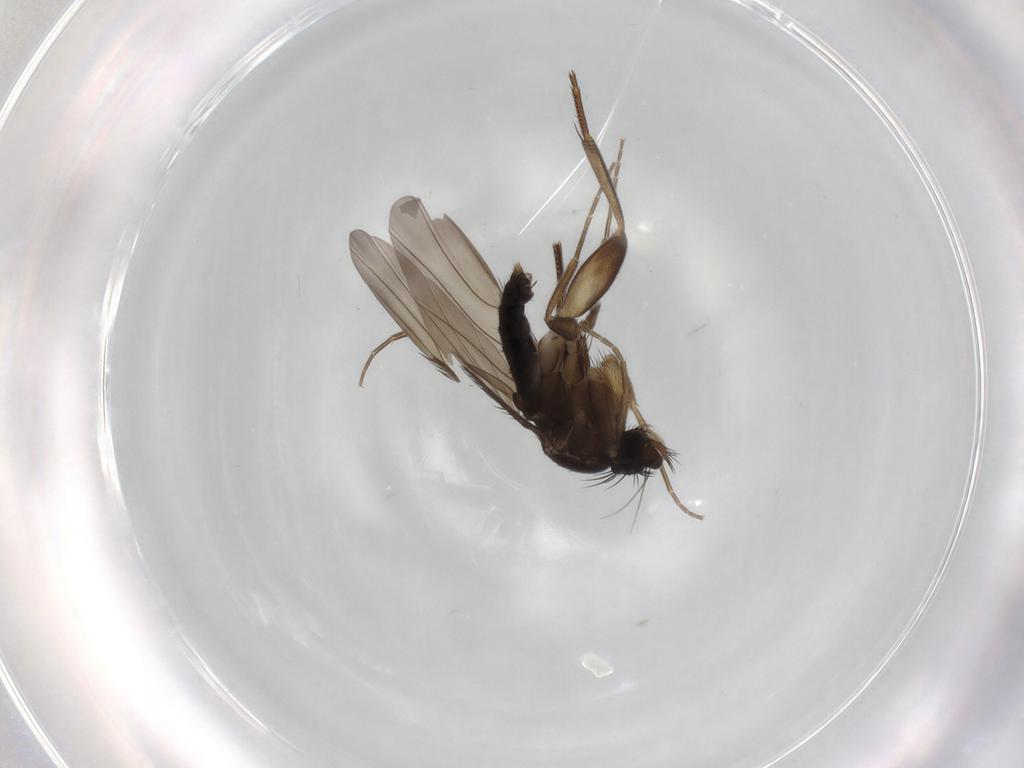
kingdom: Animalia
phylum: Arthropoda
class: Insecta
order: Diptera
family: Phoridae
